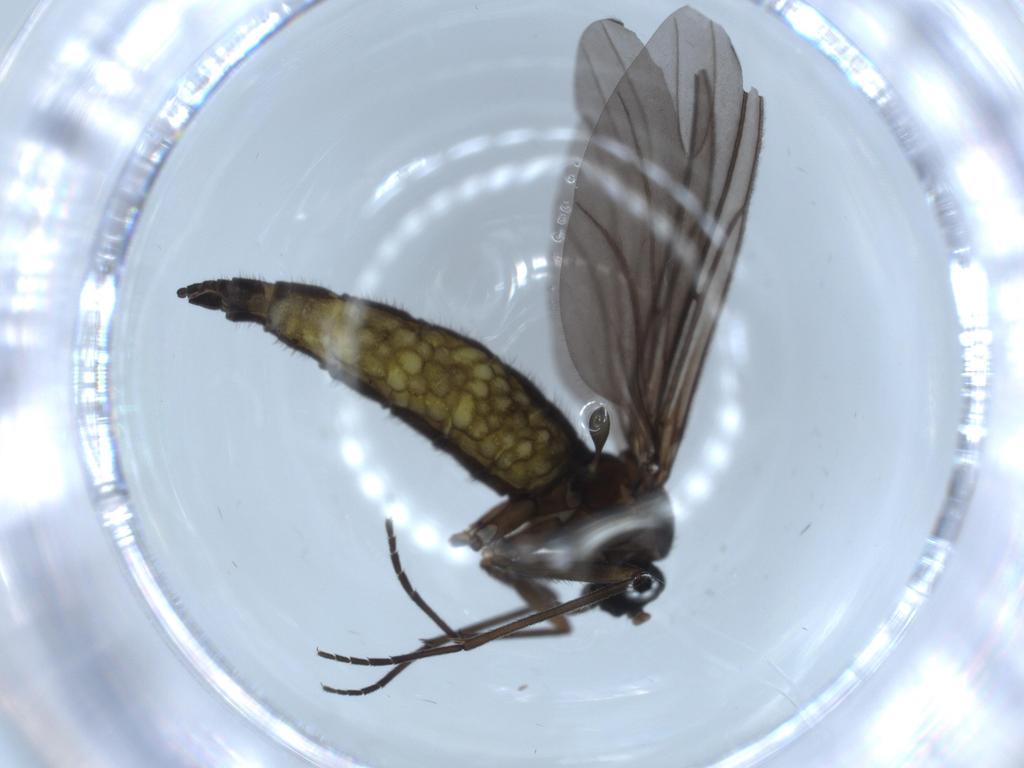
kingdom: Animalia
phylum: Arthropoda
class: Insecta
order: Diptera
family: Sciaridae
